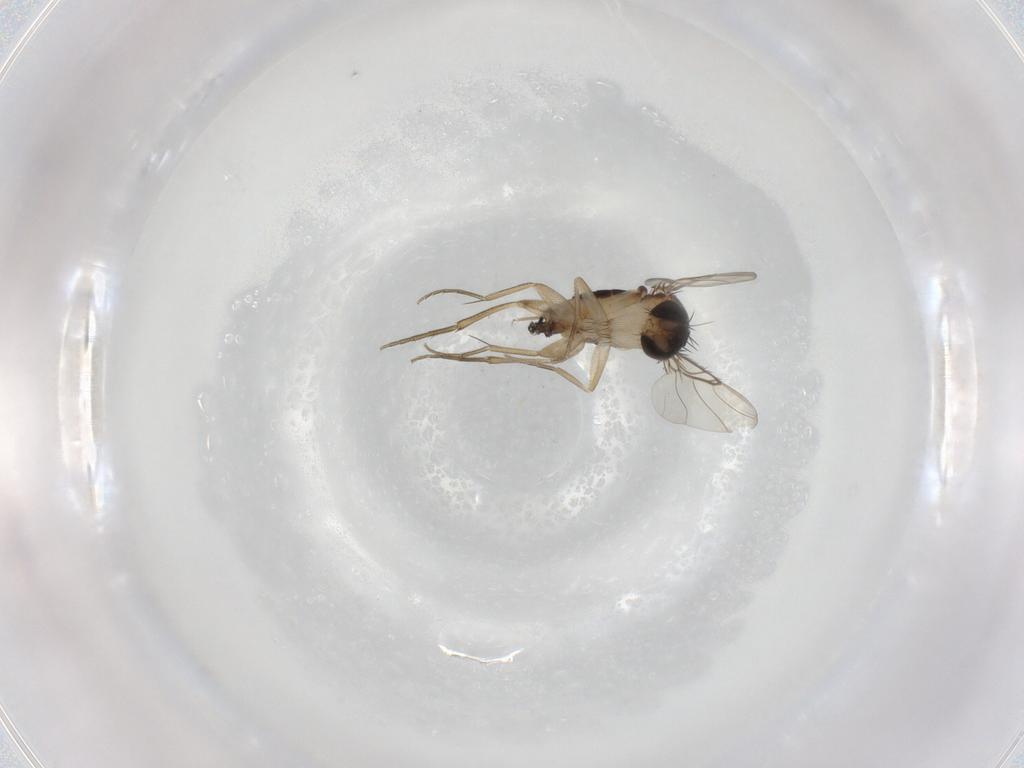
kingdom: Animalia
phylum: Arthropoda
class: Insecta
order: Diptera
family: Phoridae
